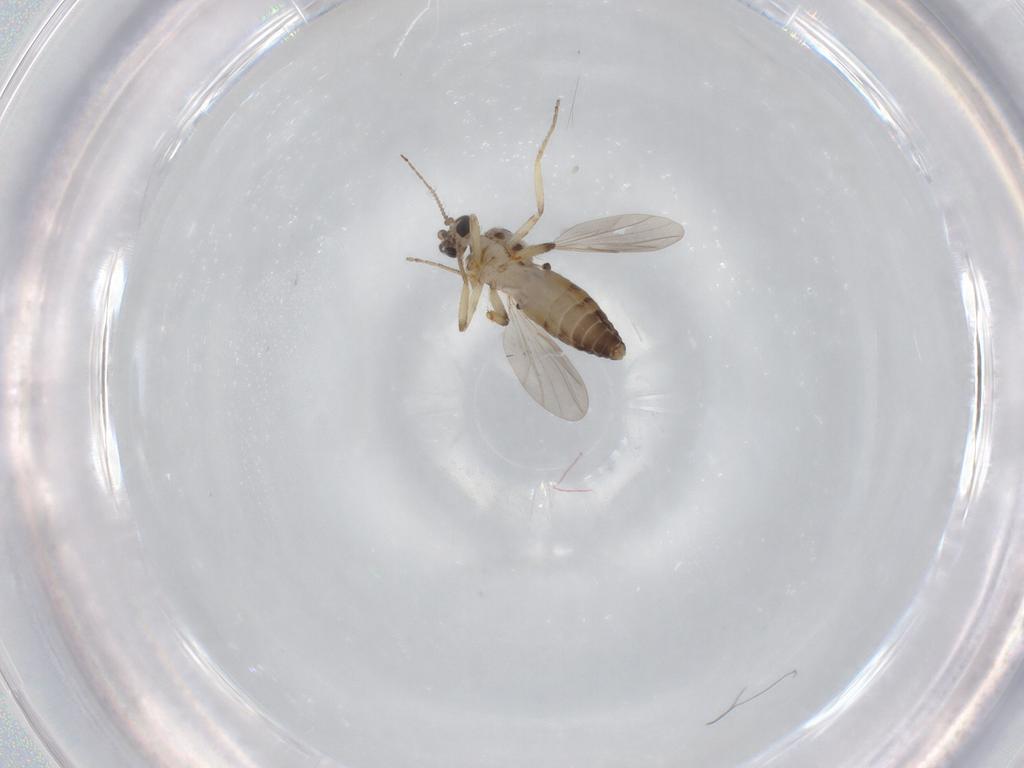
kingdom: Animalia
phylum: Arthropoda
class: Insecta
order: Diptera
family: Ceratopogonidae
